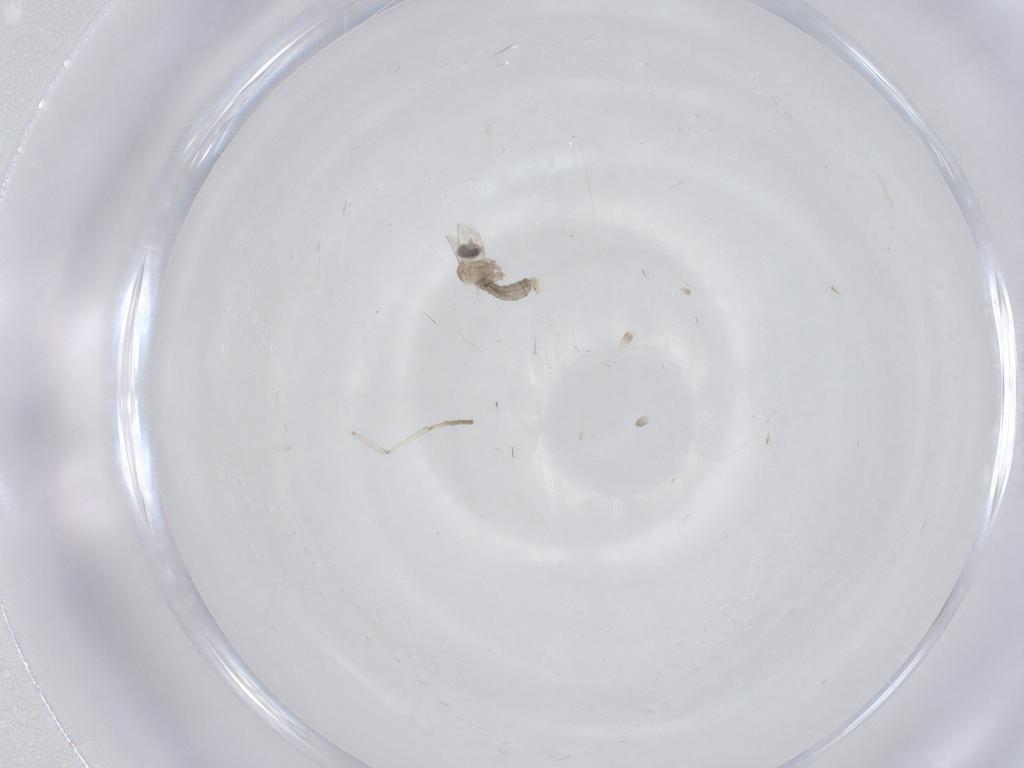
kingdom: Animalia
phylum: Arthropoda
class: Insecta
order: Diptera
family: Psychodidae
